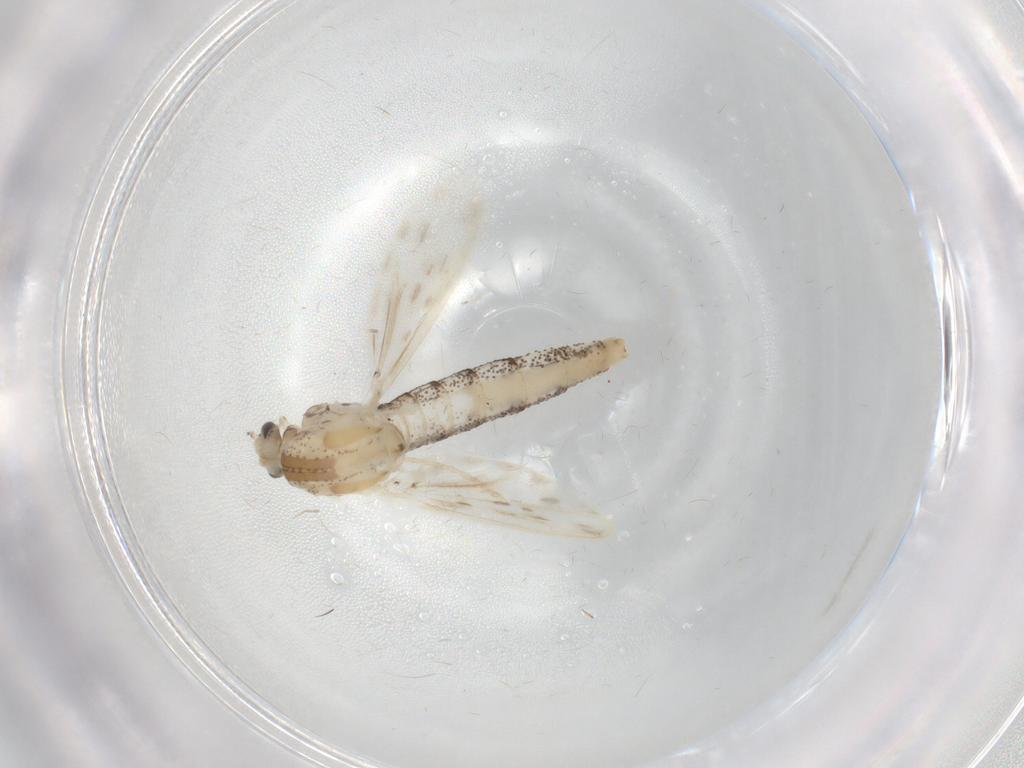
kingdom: Animalia
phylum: Arthropoda
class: Insecta
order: Diptera
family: Chaoboridae
